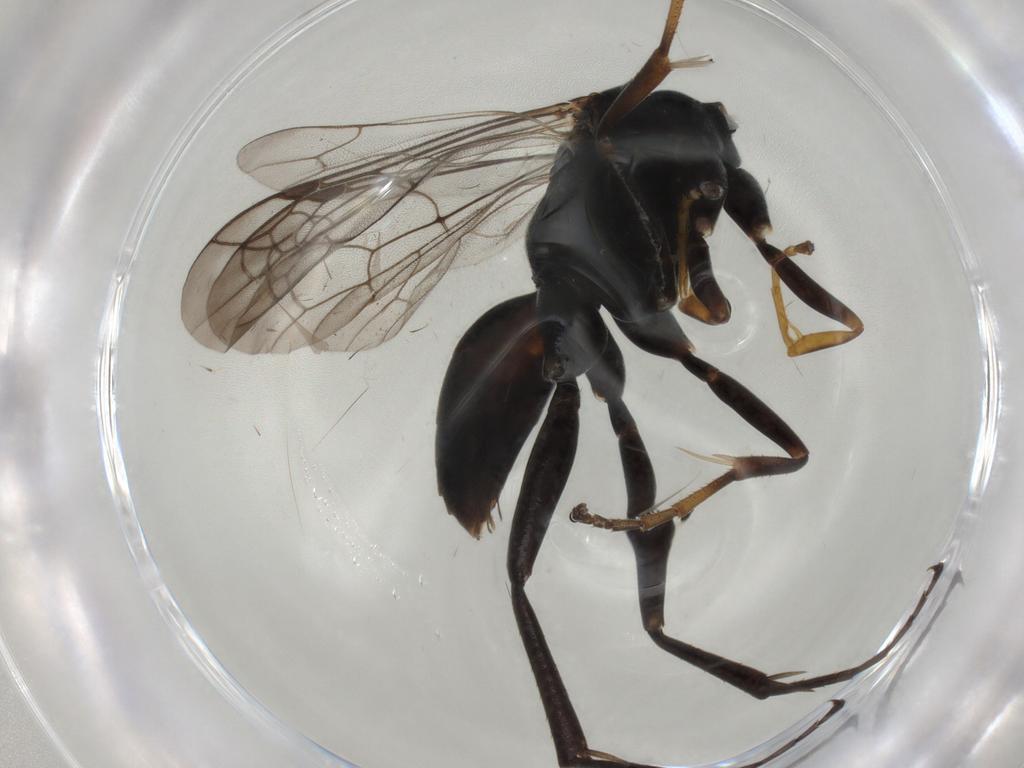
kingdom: Animalia
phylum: Arthropoda
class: Insecta
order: Hymenoptera
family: Pompilidae
